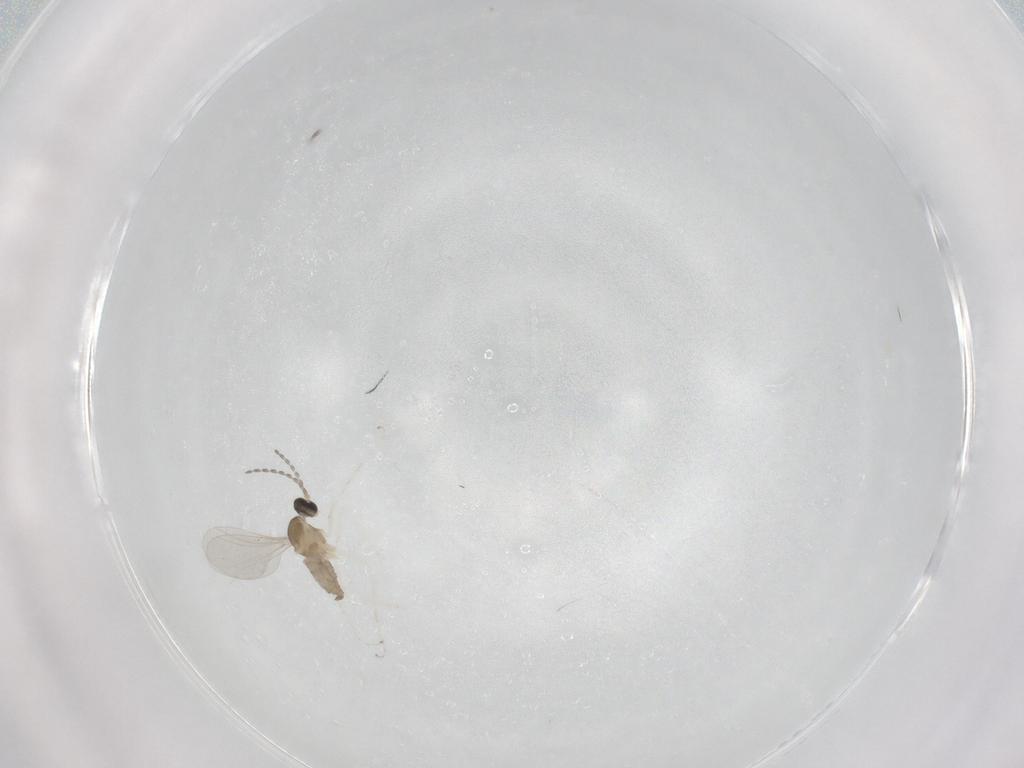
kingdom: Animalia
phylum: Arthropoda
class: Insecta
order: Diptera
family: Cecidomyiidae
